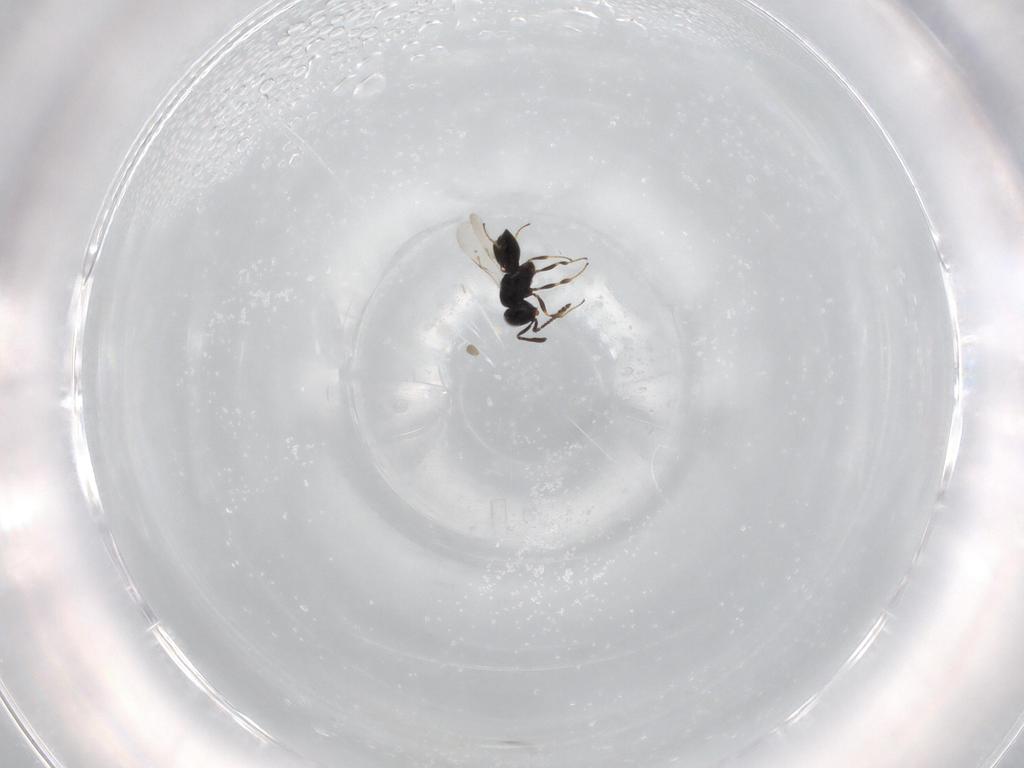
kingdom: Animalia
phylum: Arthropoda
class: Insecta
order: Hymenoptera
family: Scelionidae
